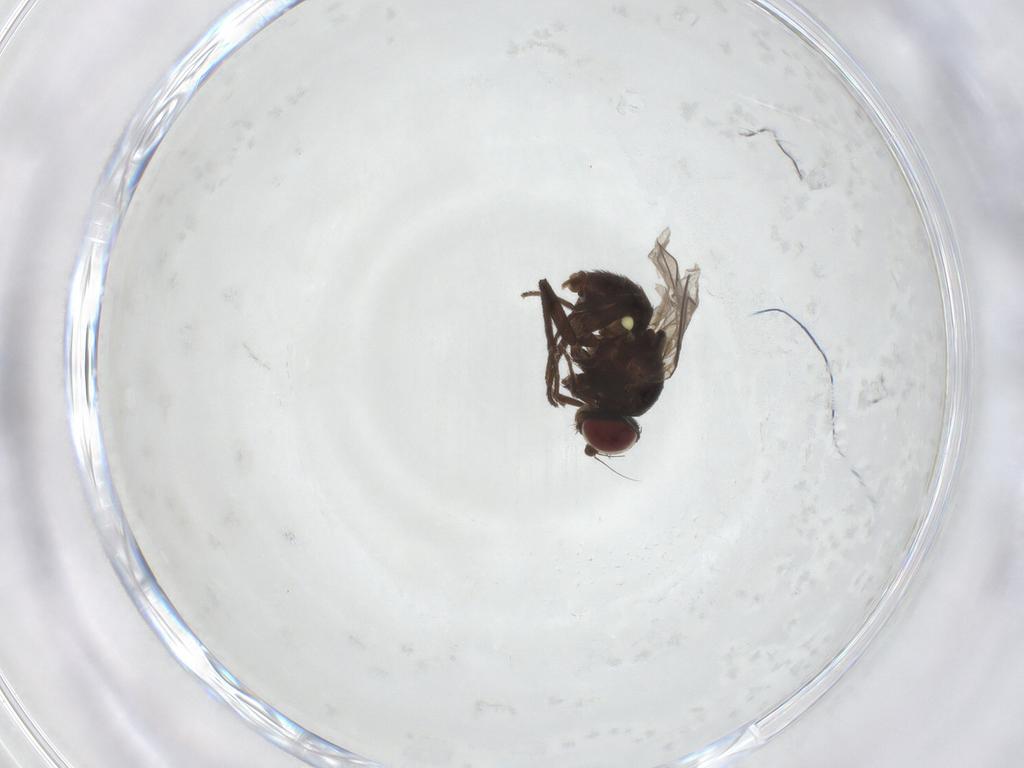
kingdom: Animalia
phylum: Arthropoda
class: Insecta
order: Diptera
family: Agromyzidae
